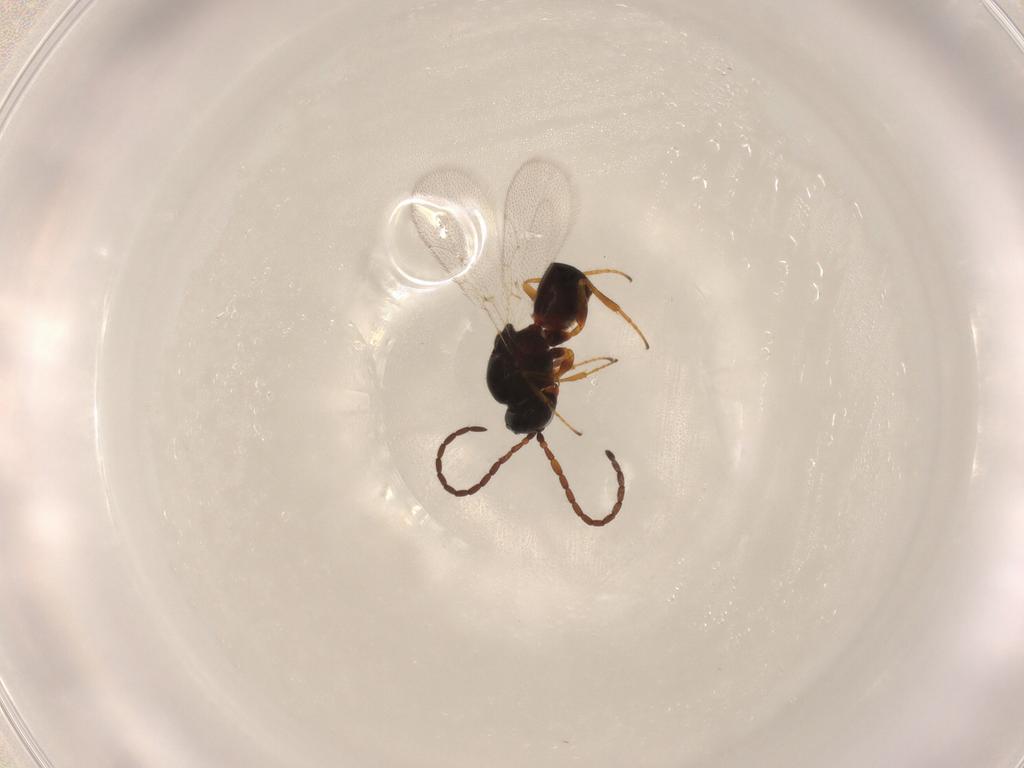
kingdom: Animalia
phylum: Arthropoda
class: Insecta
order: Hymenoptera
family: Figitidae
